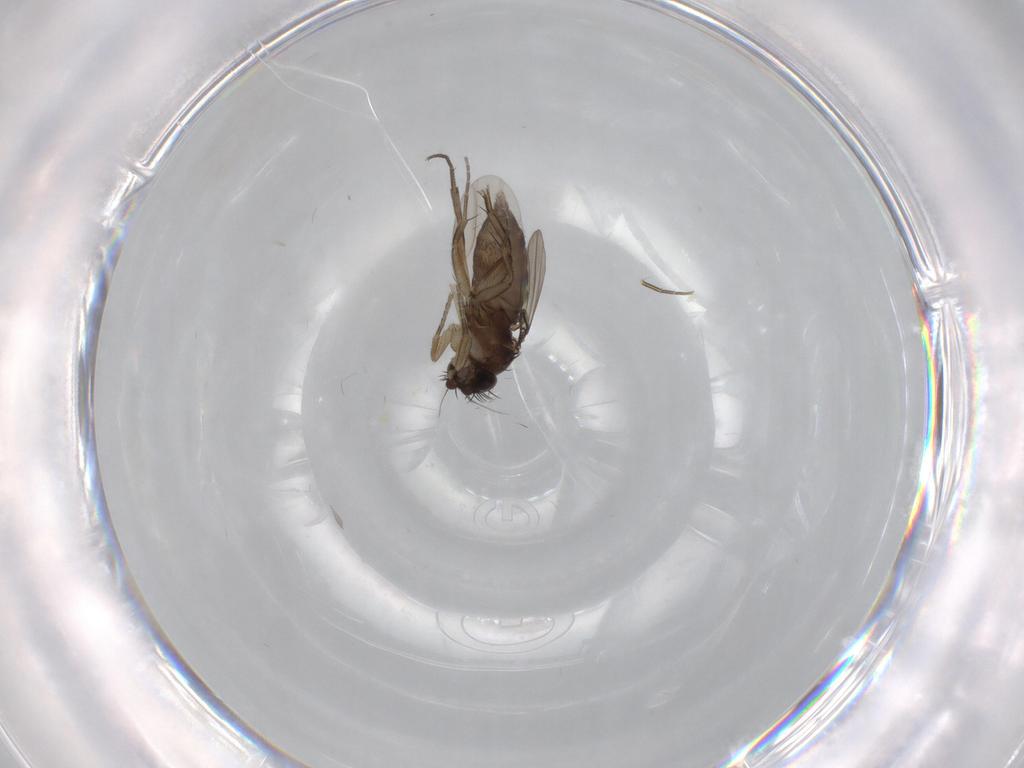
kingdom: Animalia
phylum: Arthropoda
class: Insecta
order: Diptera
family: Phoridae
